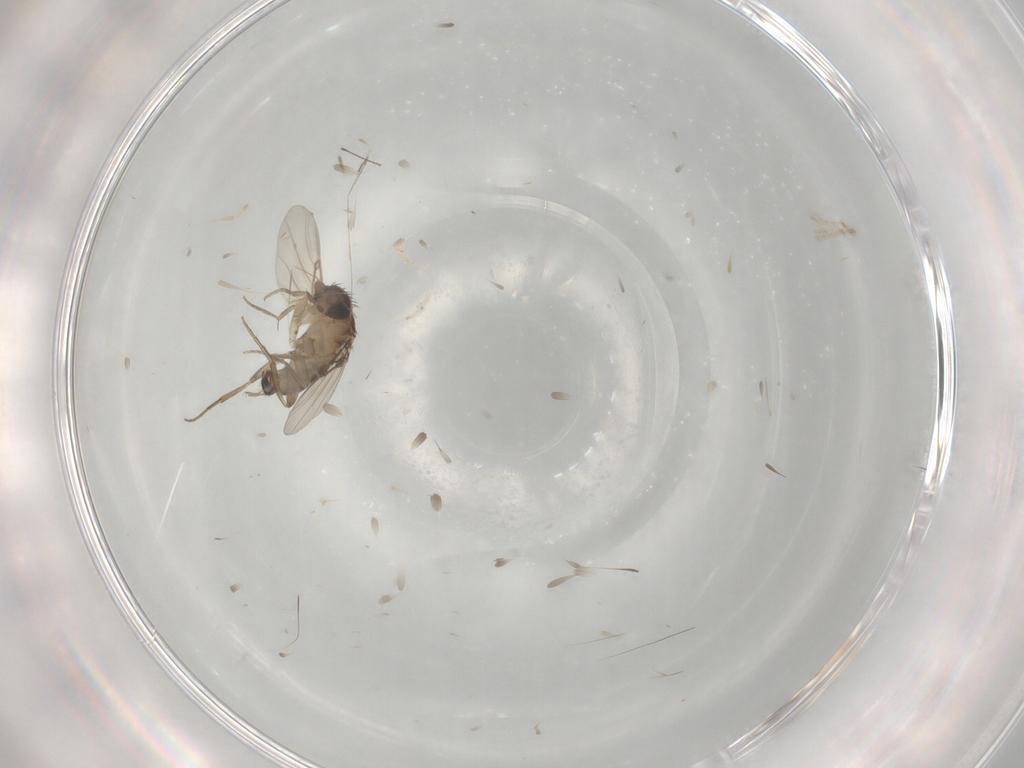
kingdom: Animalia
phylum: Arthropoda
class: Insecta
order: Diptera
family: Phoridae
